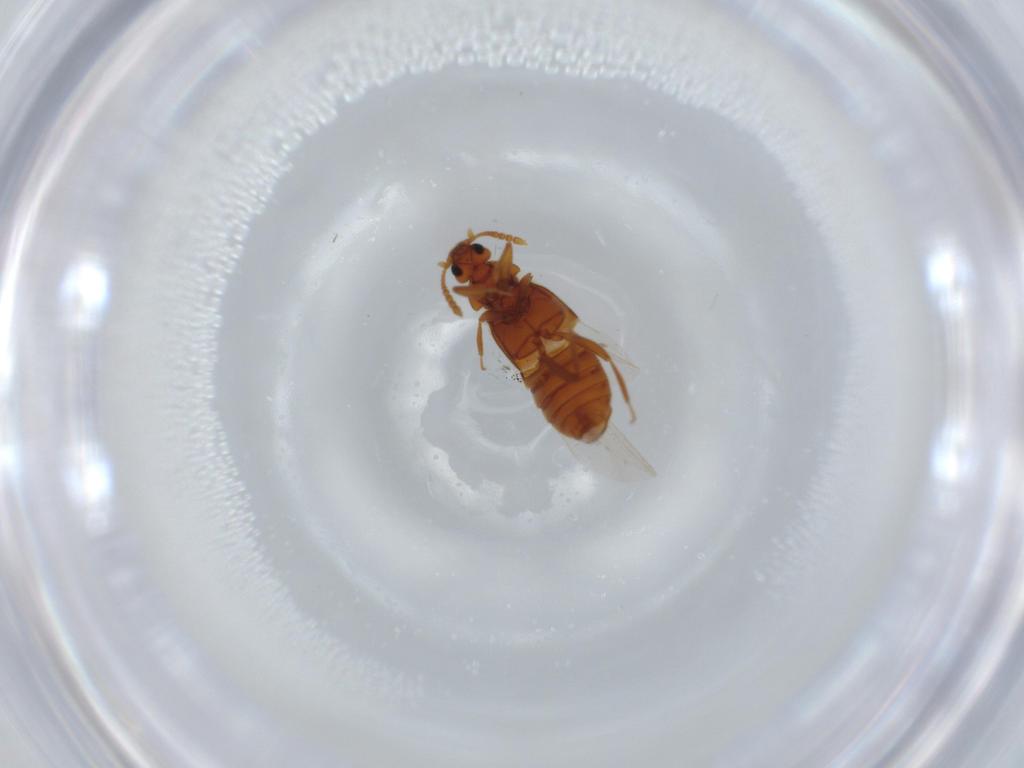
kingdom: Animalia
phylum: Arthropoda
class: Insecta
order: Coleoptera
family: Staphylinidae
